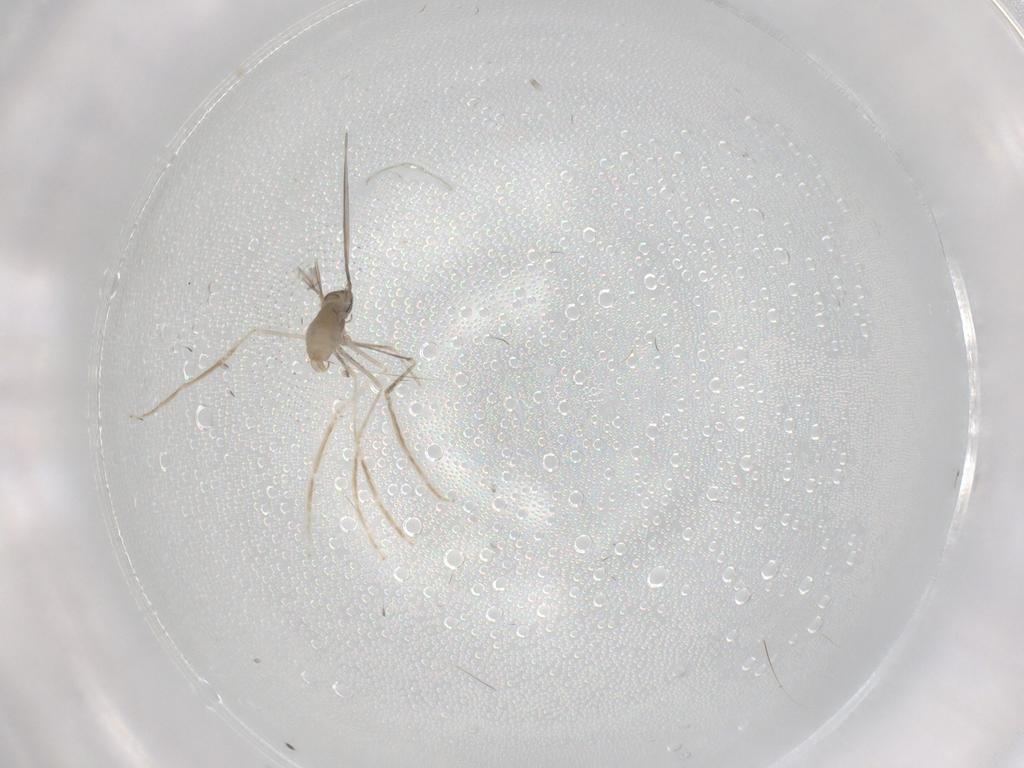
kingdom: Animalia
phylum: Arthropoda
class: Insecta
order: Diptera
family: Cecidomyiidae
